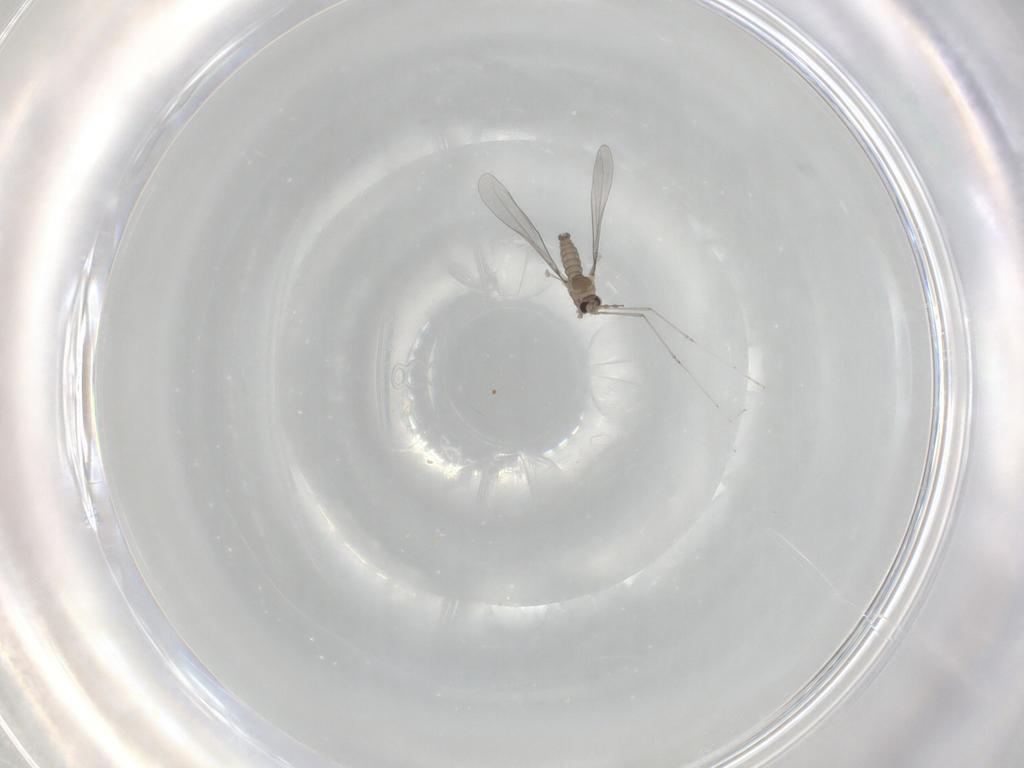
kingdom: Animalia
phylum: Arthropoda
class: Insecta
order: Diptera
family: Cecidomyiidae
